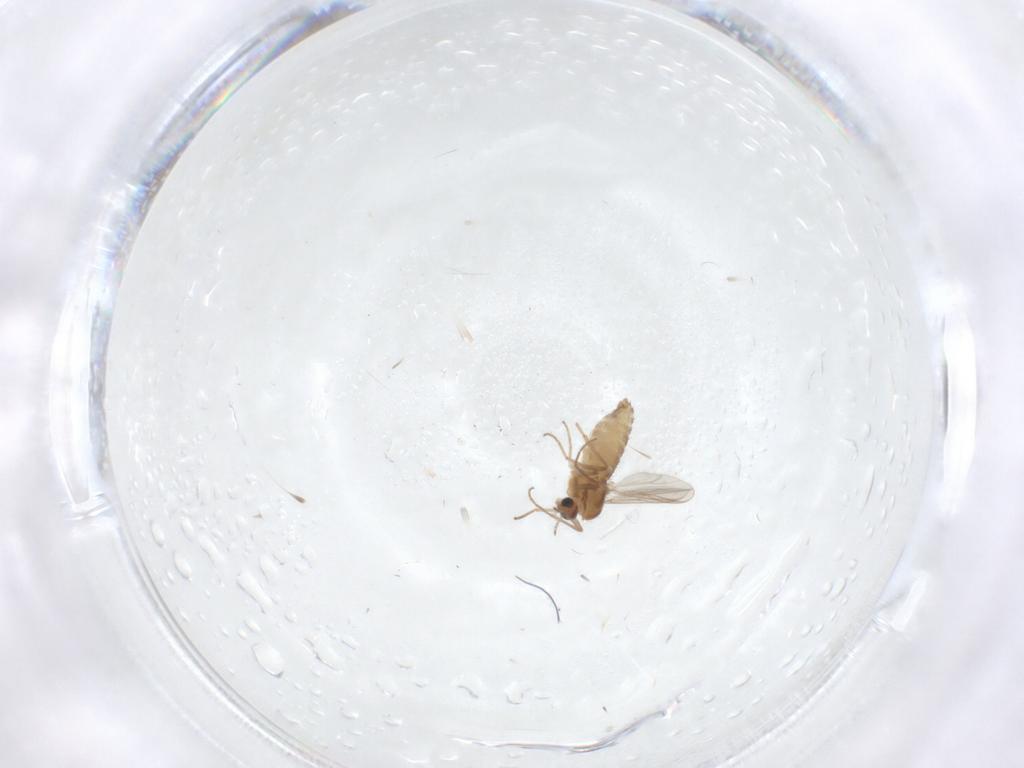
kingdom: Animalia
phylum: Arthropoda
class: Insecta
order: Diptera
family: Chironomidae
